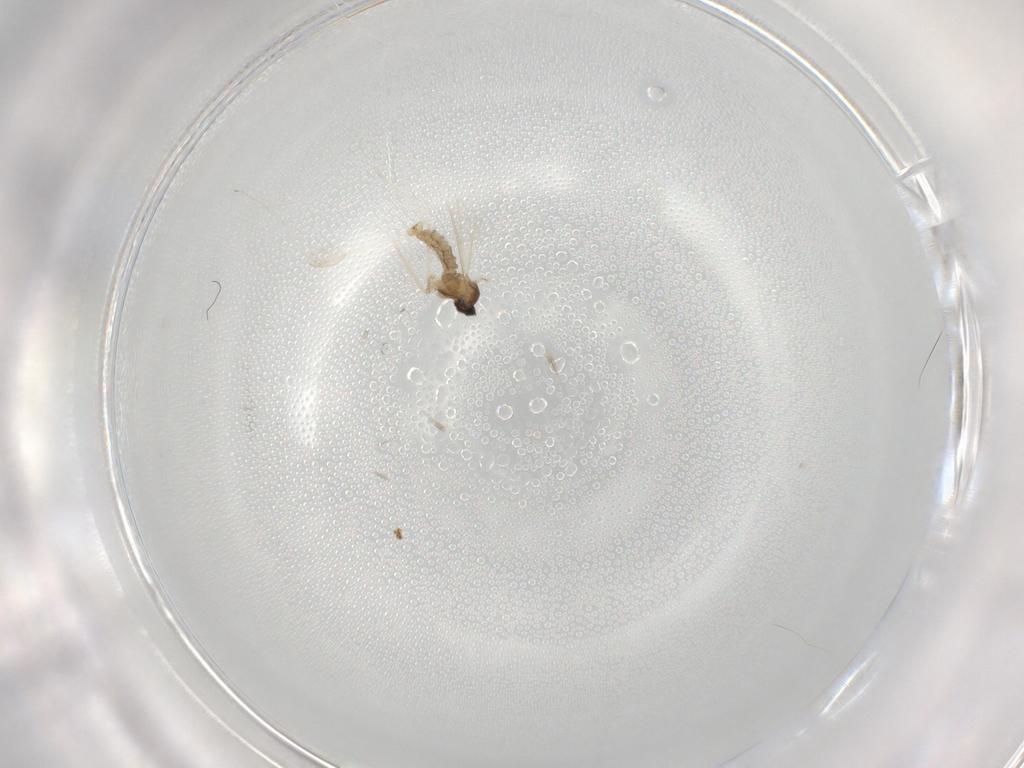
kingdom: Animalia
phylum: Arthropoda
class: Insecta
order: Diptera
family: Cecidomyiidae
